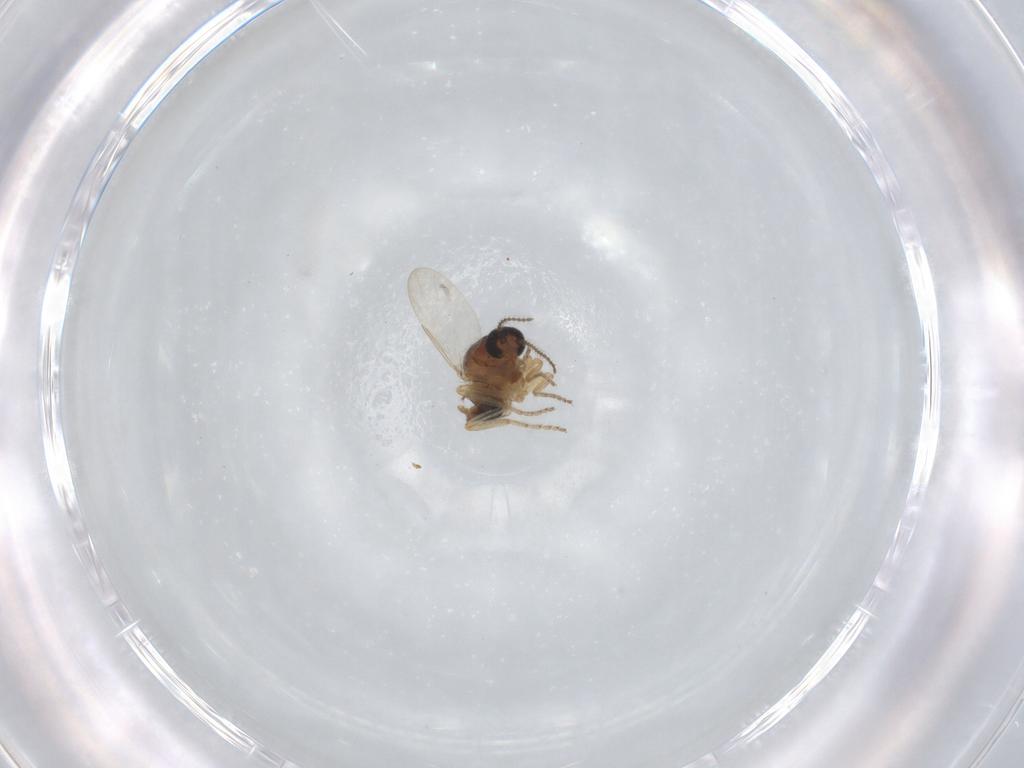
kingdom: Animalia
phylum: Arthropoda
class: Insecta
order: Diptera
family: Ceratopogonidae
